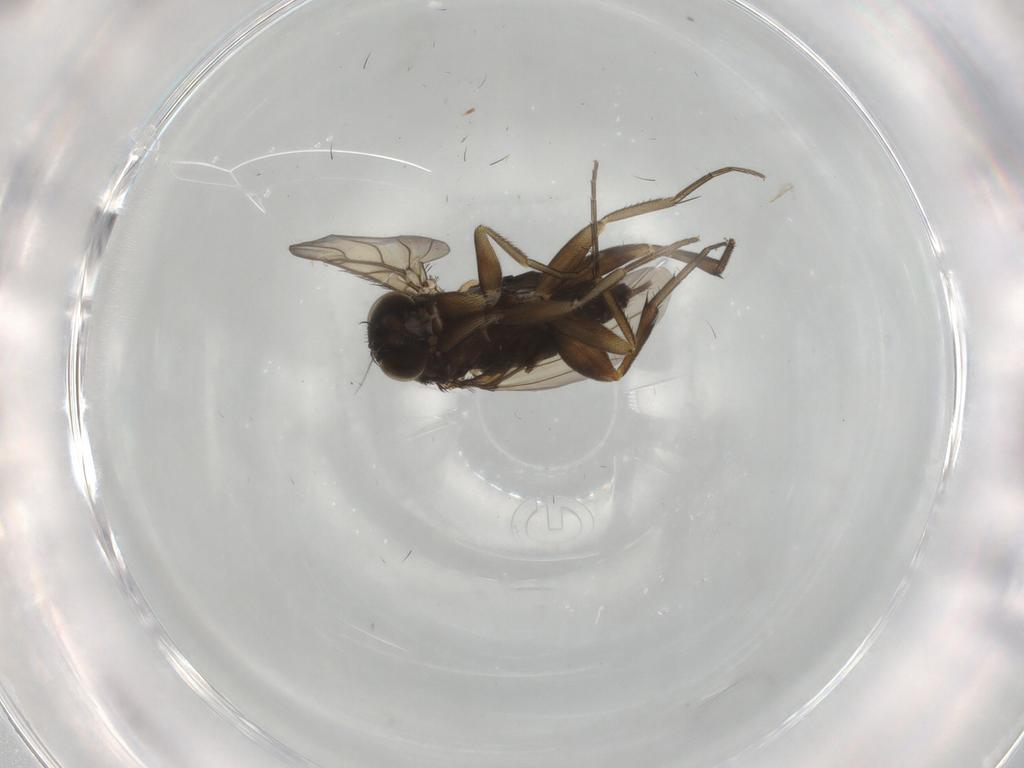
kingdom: Animalia
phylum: Arthropoda
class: Insecta
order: Diptera
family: Phoridae
